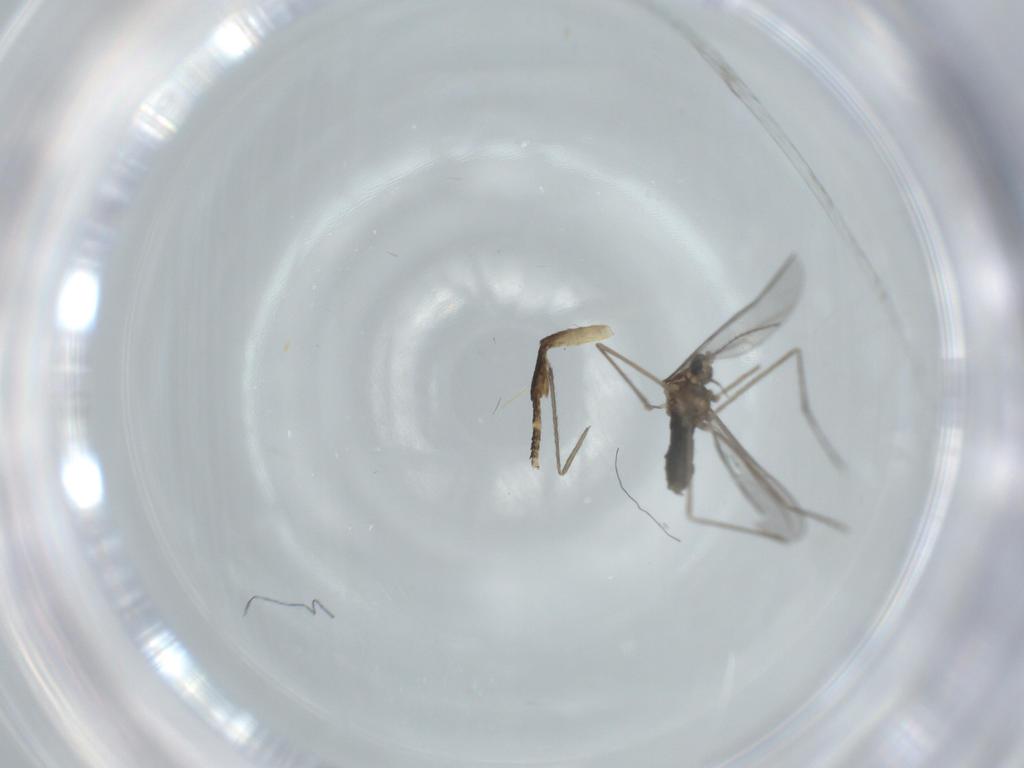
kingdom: Animalia
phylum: Arthropoda
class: Insecta
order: Diptera
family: Cecidomyiidae
